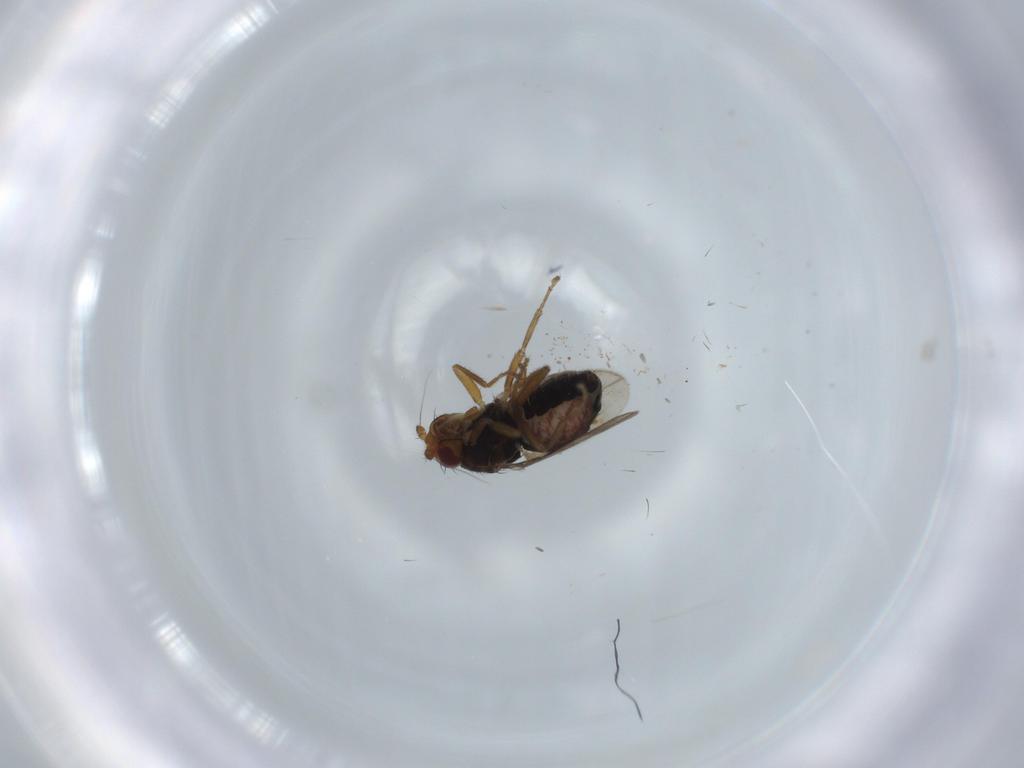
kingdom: Animalia
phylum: Arthropoda
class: Insecta
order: Diptera
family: Sphaeroceridae
